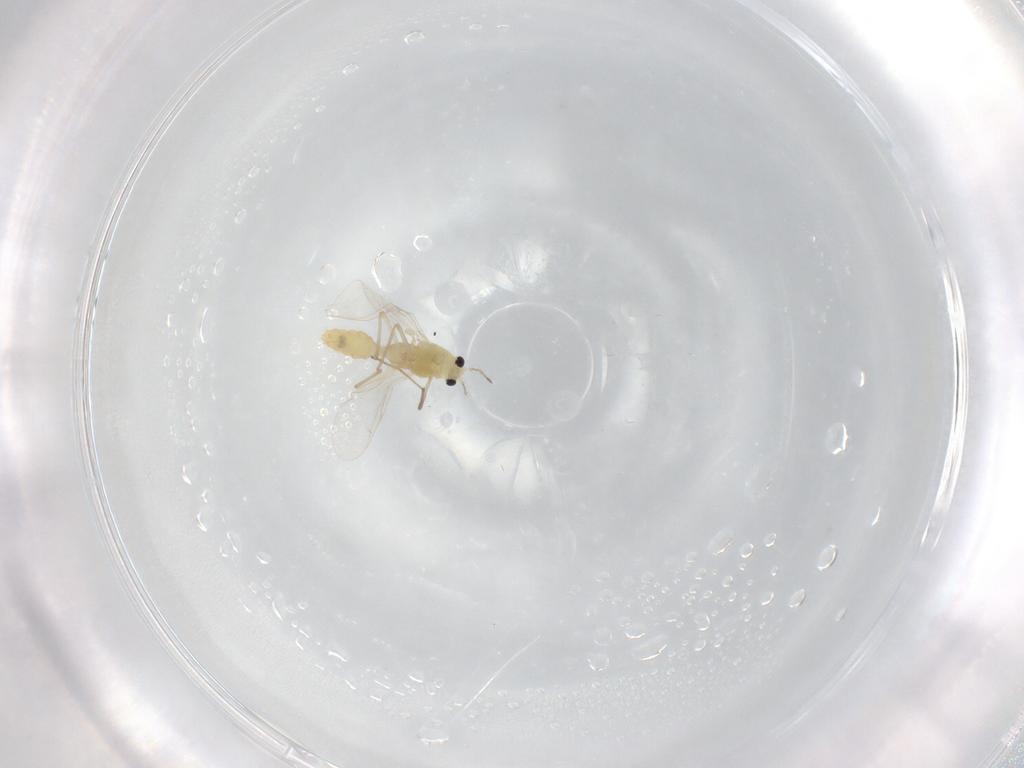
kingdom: Animalia
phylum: Arthropoda
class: Insecta
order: Diptera
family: Chironomidae
